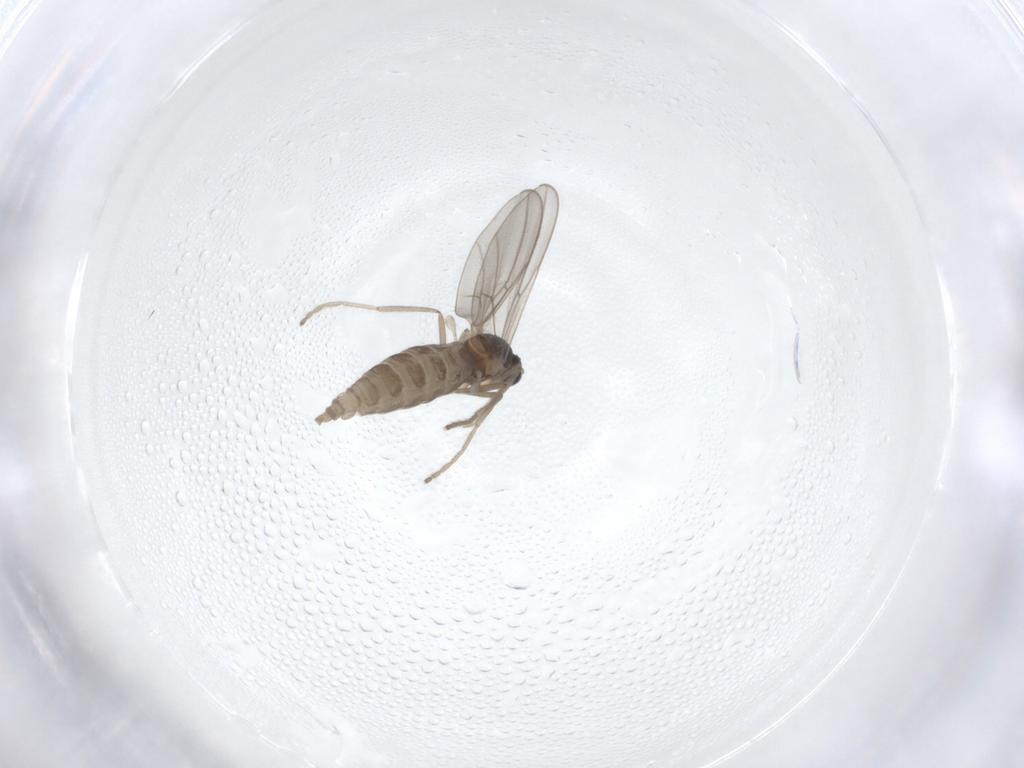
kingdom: Animalia
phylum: Arthropoda
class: Insecta
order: Diptera
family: Cecidomyiidae
